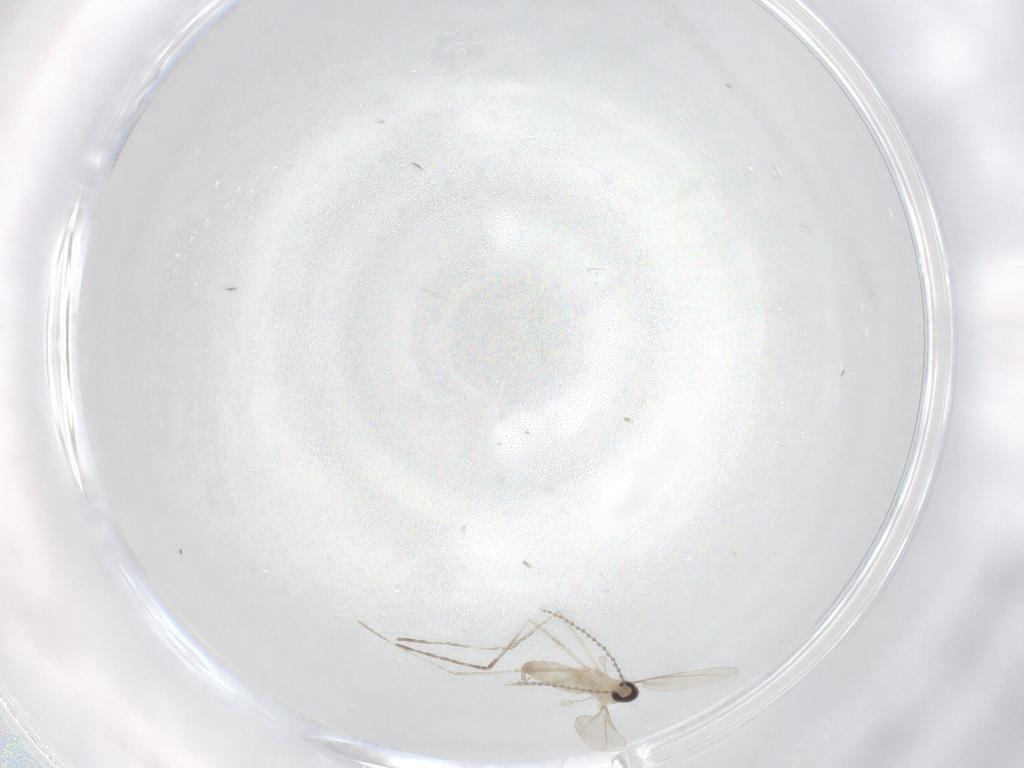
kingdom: Animalia
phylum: Arthropoda
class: Insecta
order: Diptera
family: Cecidomyiidae
